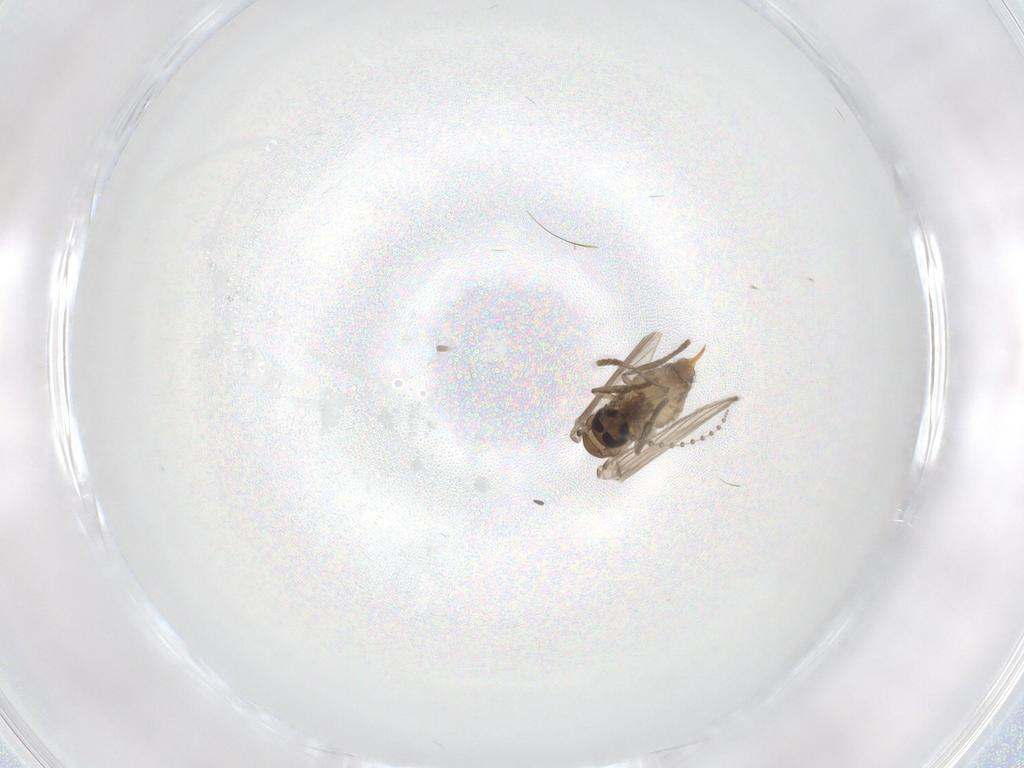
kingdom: Animalia
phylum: Arthropoda
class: Insecta
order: Diptera
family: Psychodidae
